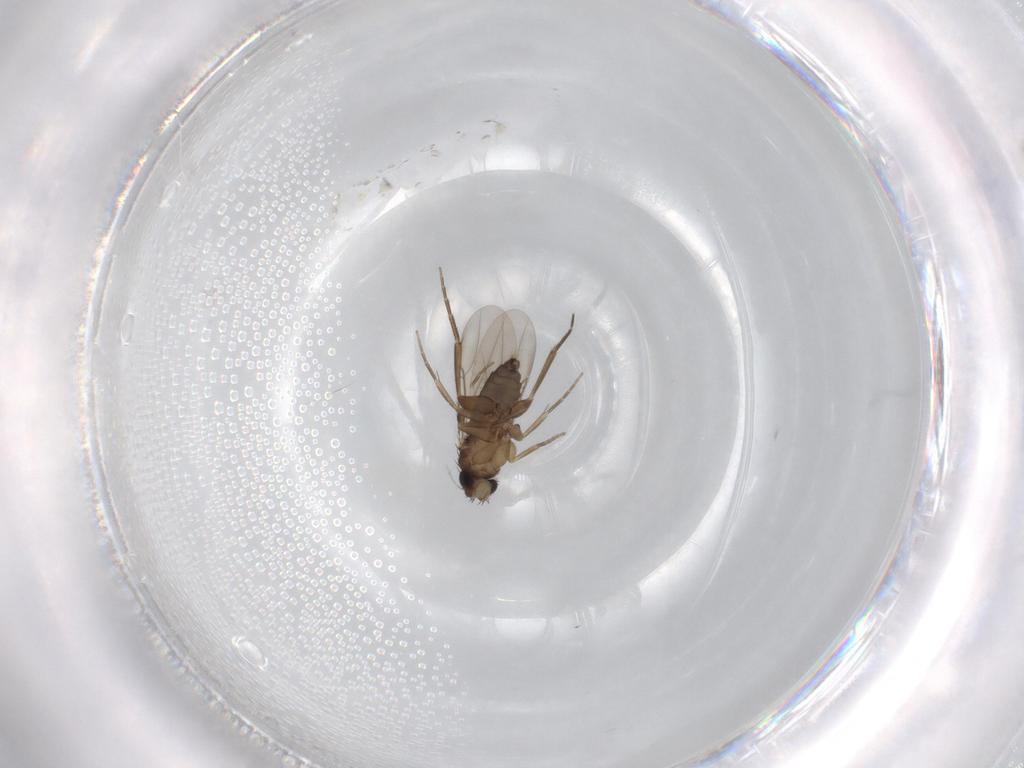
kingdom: Animalia
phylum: Arthropoda
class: Insecta
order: Diptera
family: Phoridae
